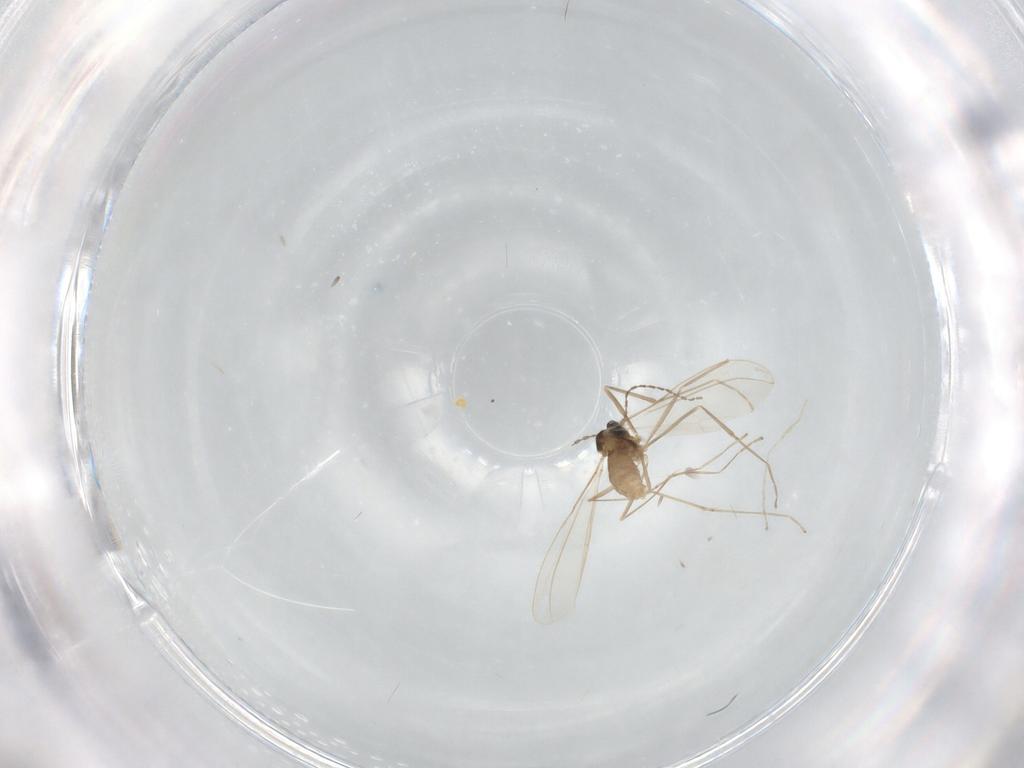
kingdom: Animalia
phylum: Arthropoda
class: Insecta
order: Diptera
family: Cecidomyiidae
